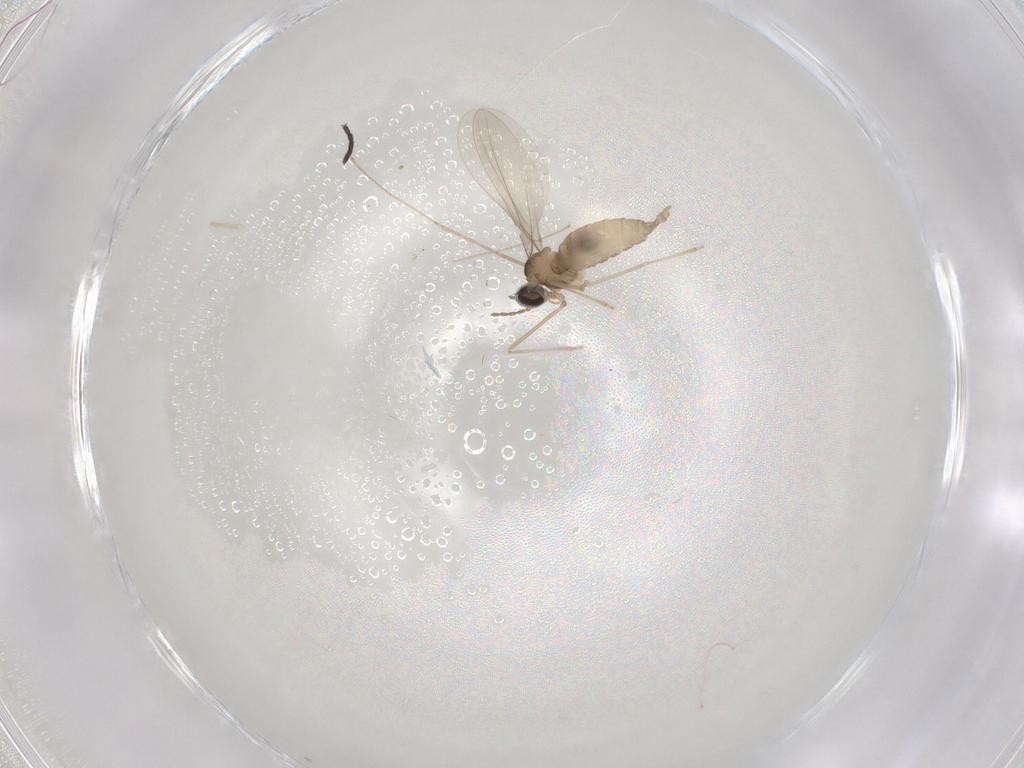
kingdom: Animalia
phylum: Arthropoda
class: Insecta
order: Diptera
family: Sciaridae
